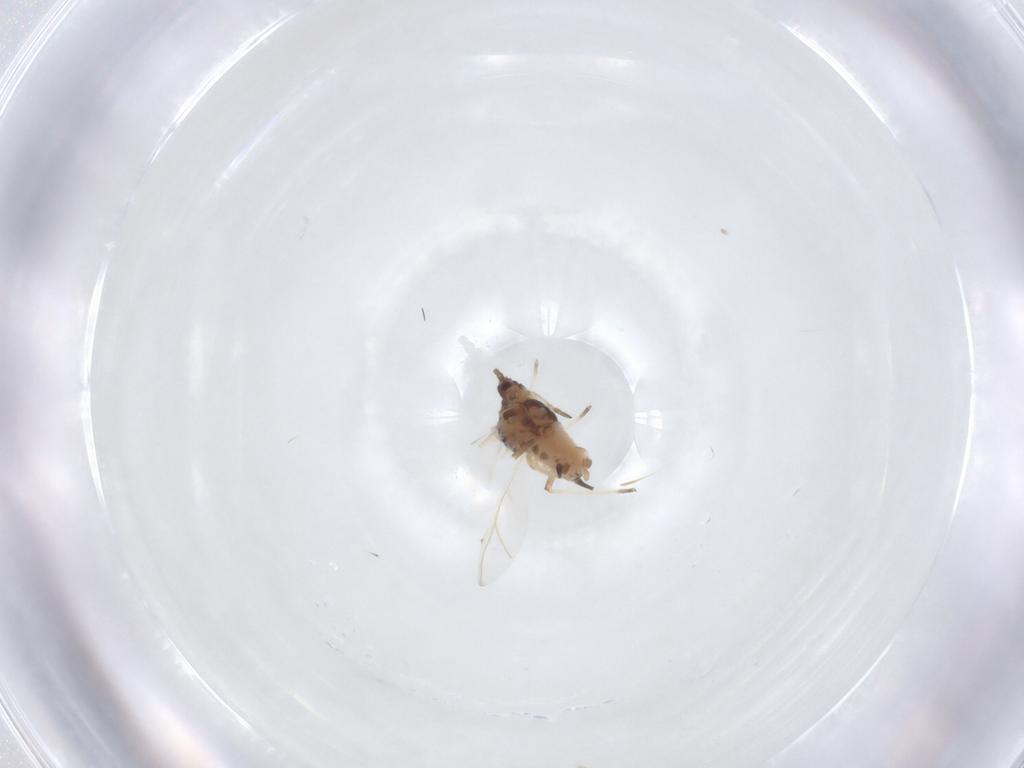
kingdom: Animalia
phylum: Arthropoda
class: Insecta
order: Hemiptera
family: Aphididae
